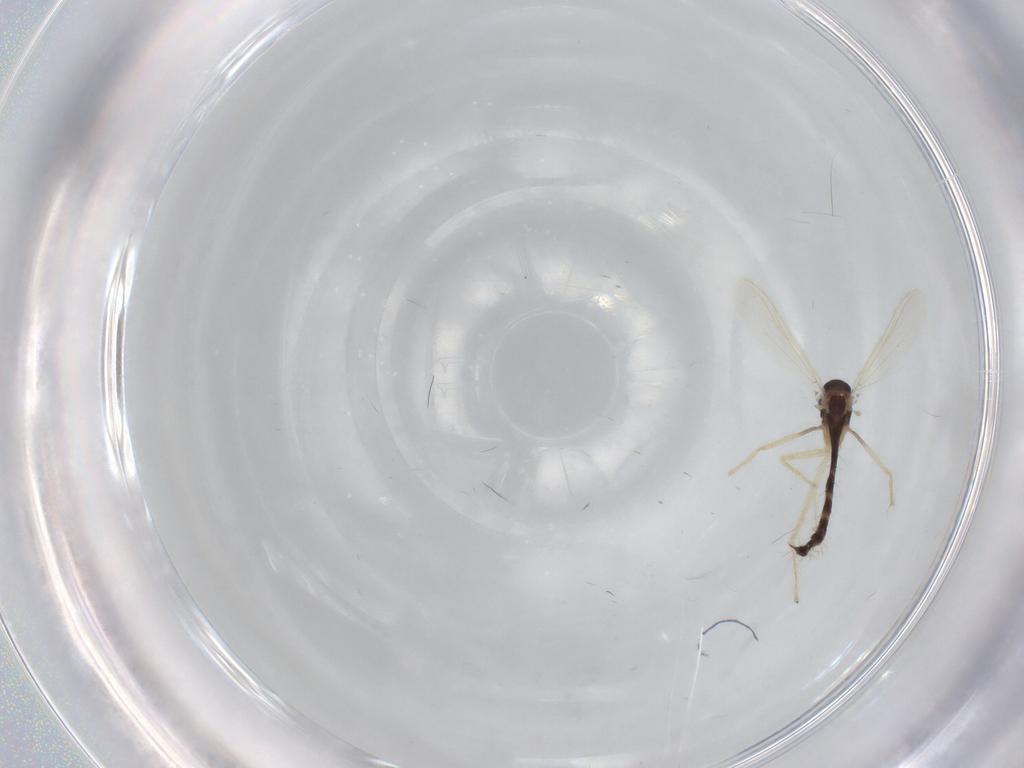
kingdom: Animalia
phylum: Arthropoda
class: Insecta
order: Diptera
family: Chironomidae
